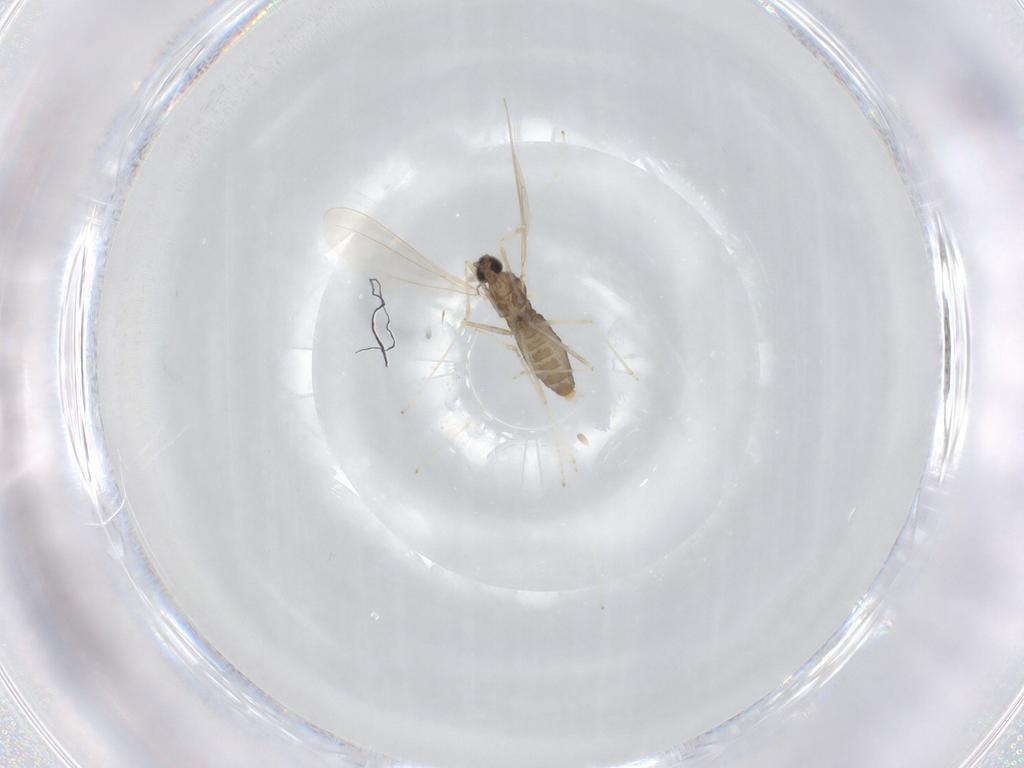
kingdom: Animalia
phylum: Arthropoda
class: Insecta
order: Diptera
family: Cecidomyiidae
